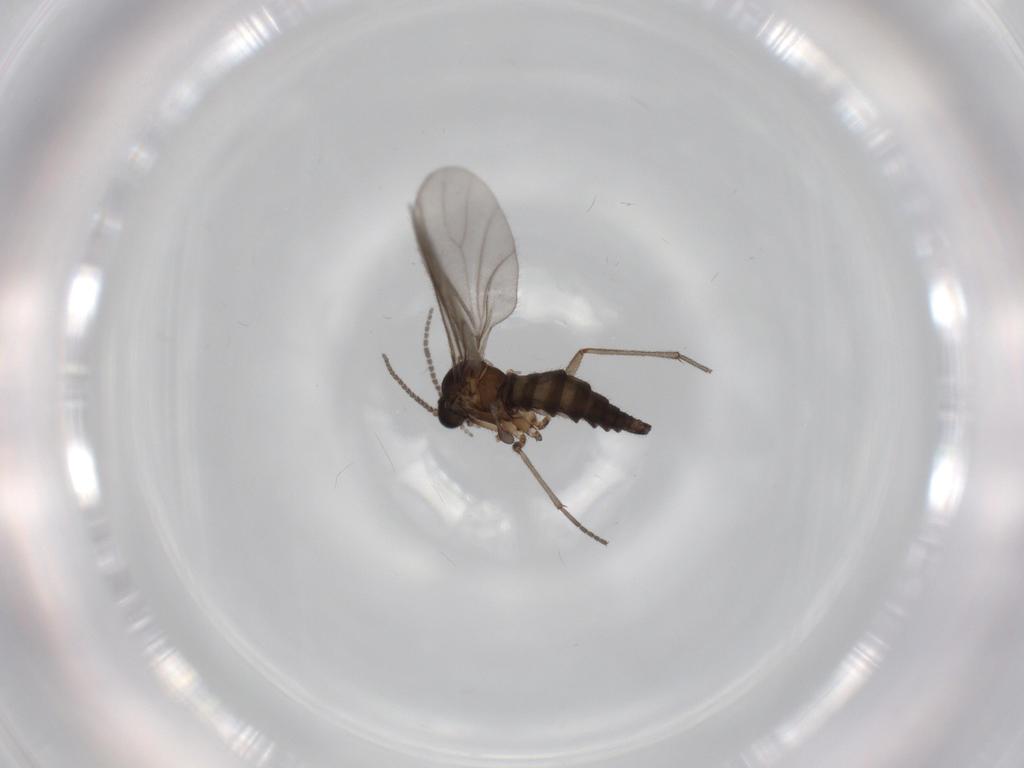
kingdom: Animalia
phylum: Arthropoda
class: Insecta
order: Diptera
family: Sciaridae
